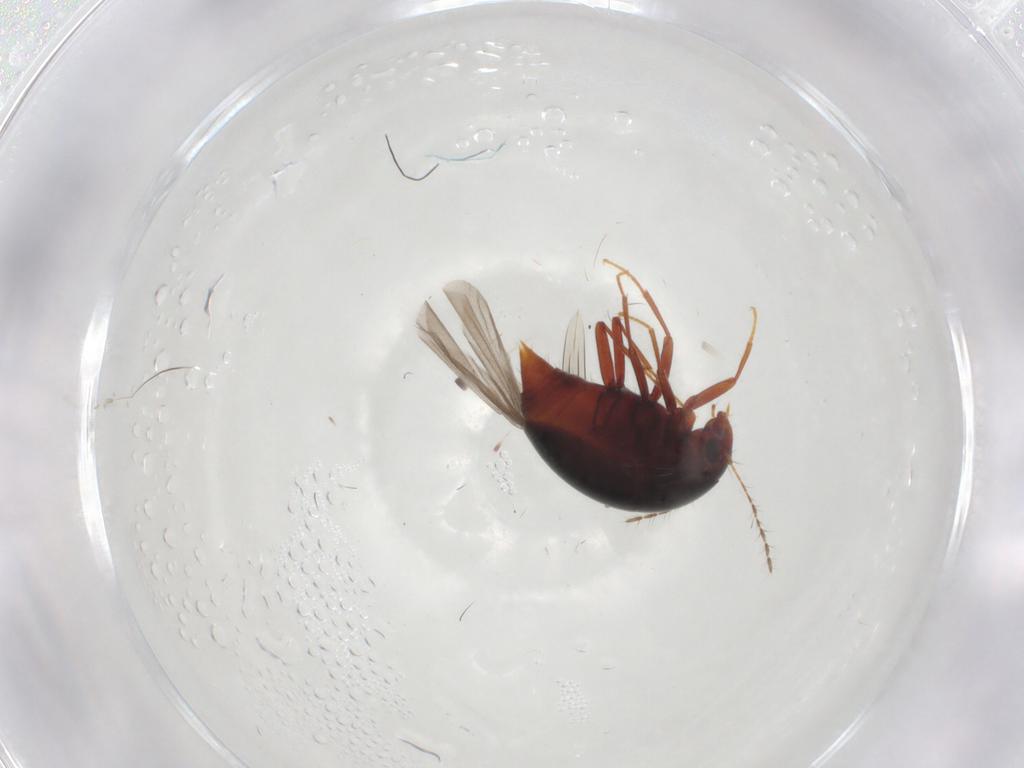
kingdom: Animalia
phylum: Arthropoda
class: Insecta
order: Coleoptera
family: Staphylinidae
